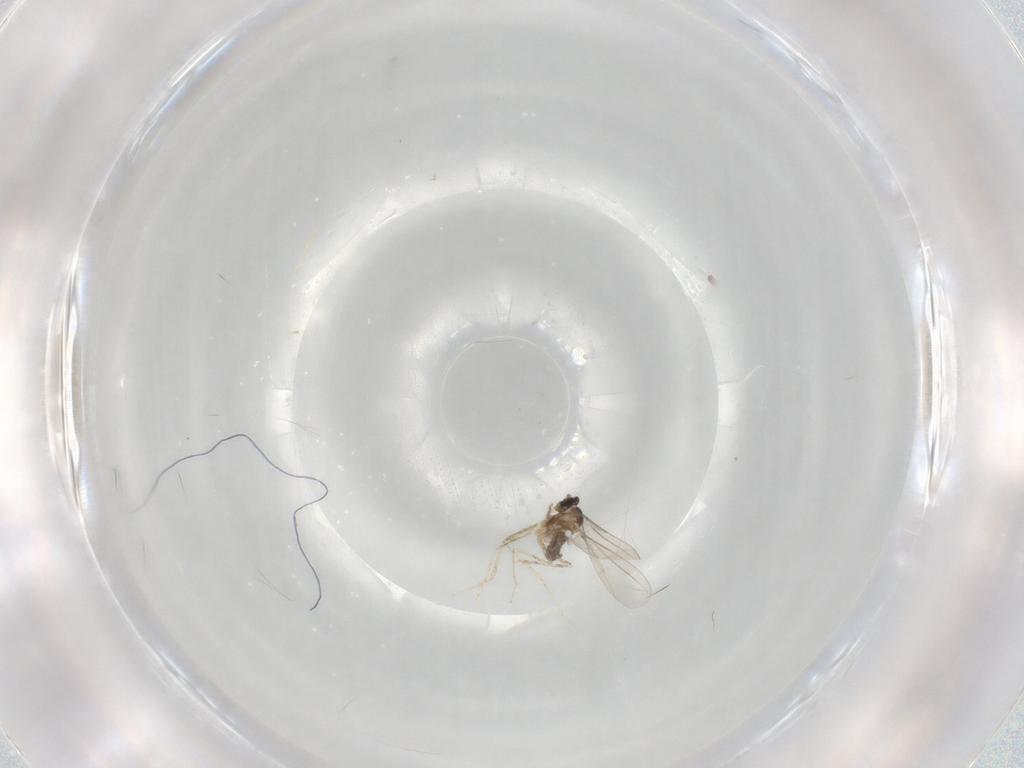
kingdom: Animalia
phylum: Arthropoda
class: Insecta
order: Diptera
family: Cecidomyiidae
